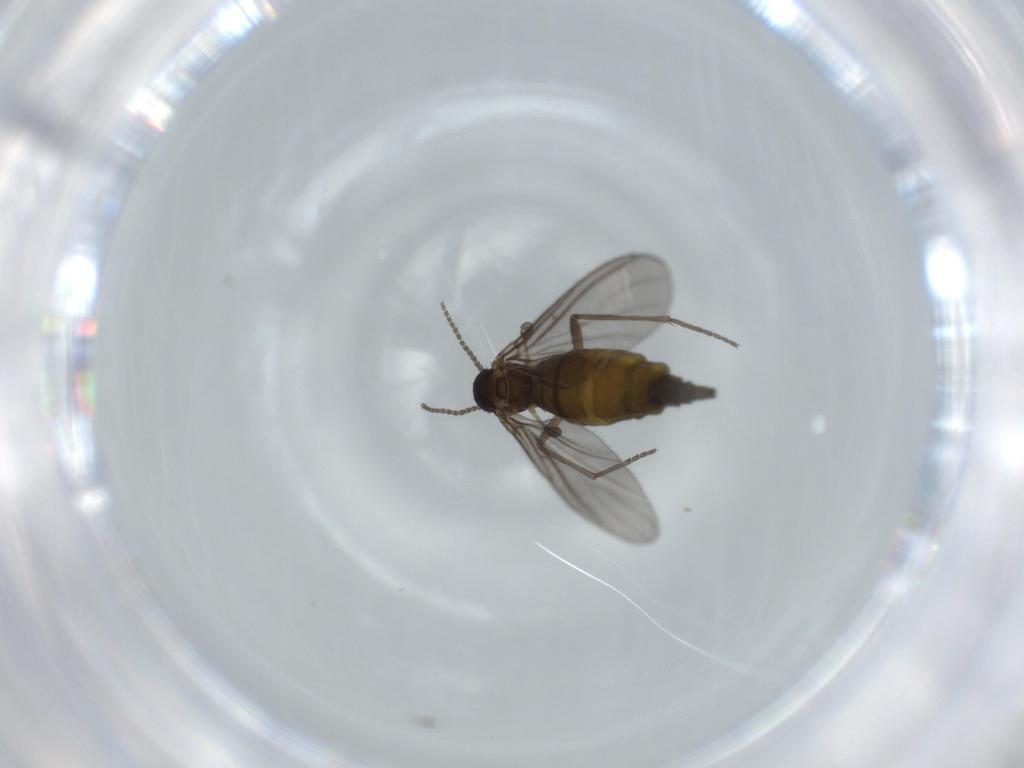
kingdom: Animalia
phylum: Arthropoda
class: Insecta
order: Diptera
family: Sciaridae
